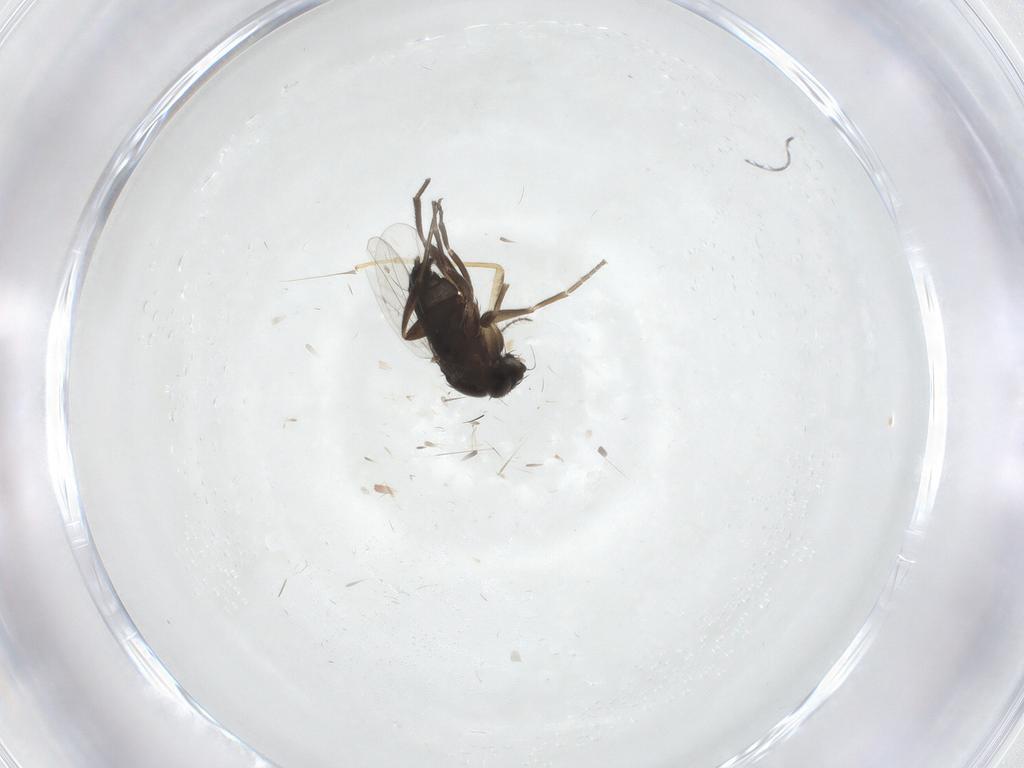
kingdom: Animalia
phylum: Arthropoda
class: Insecta
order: Diptera
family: Phoridae
